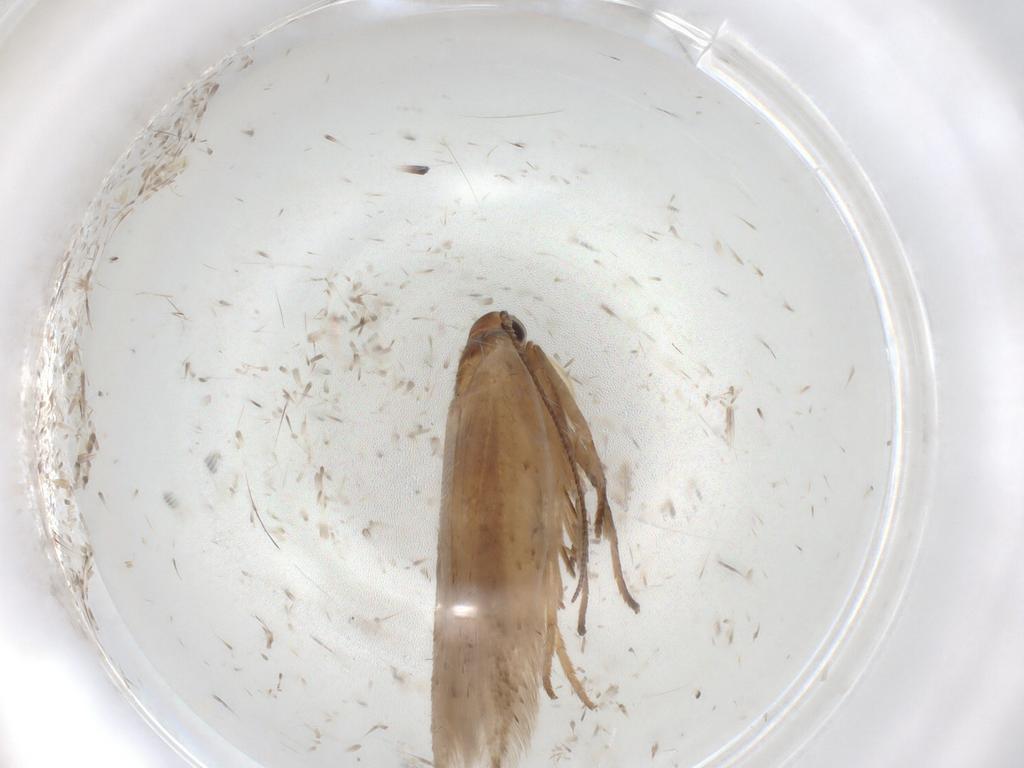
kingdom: Animalia
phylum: Arthropoda
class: Insecta
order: Lepidoptera
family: Gelechiidae
